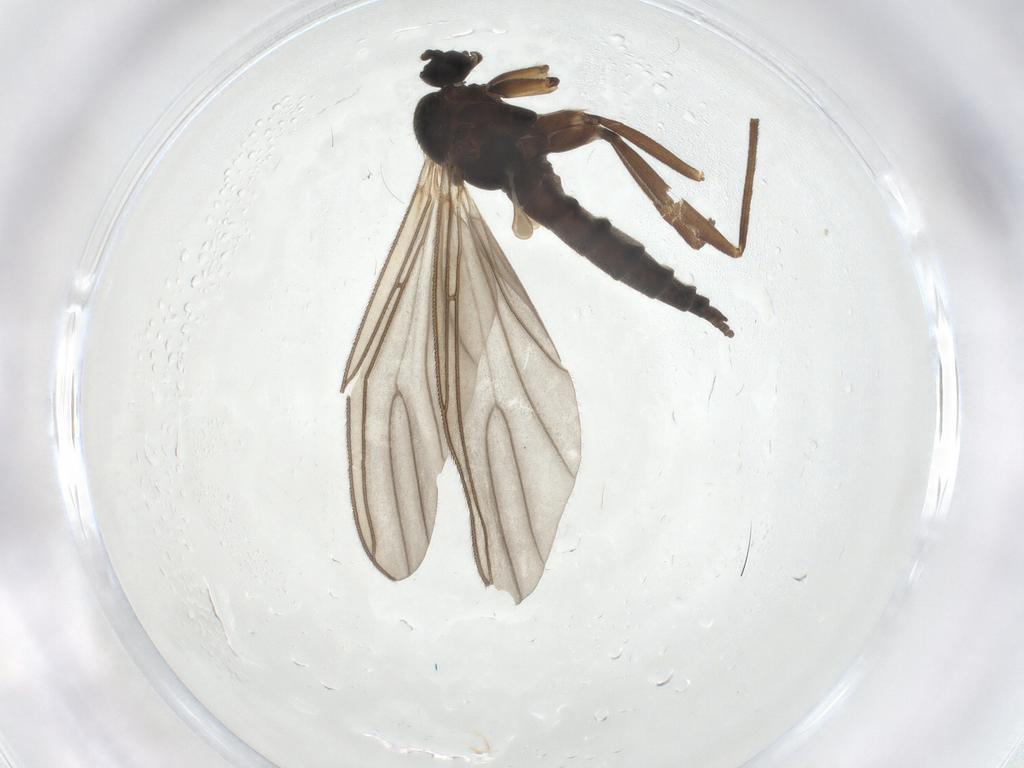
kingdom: Animalia
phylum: Arthropoda
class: Insecta
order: Diptera
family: Sciaridae
